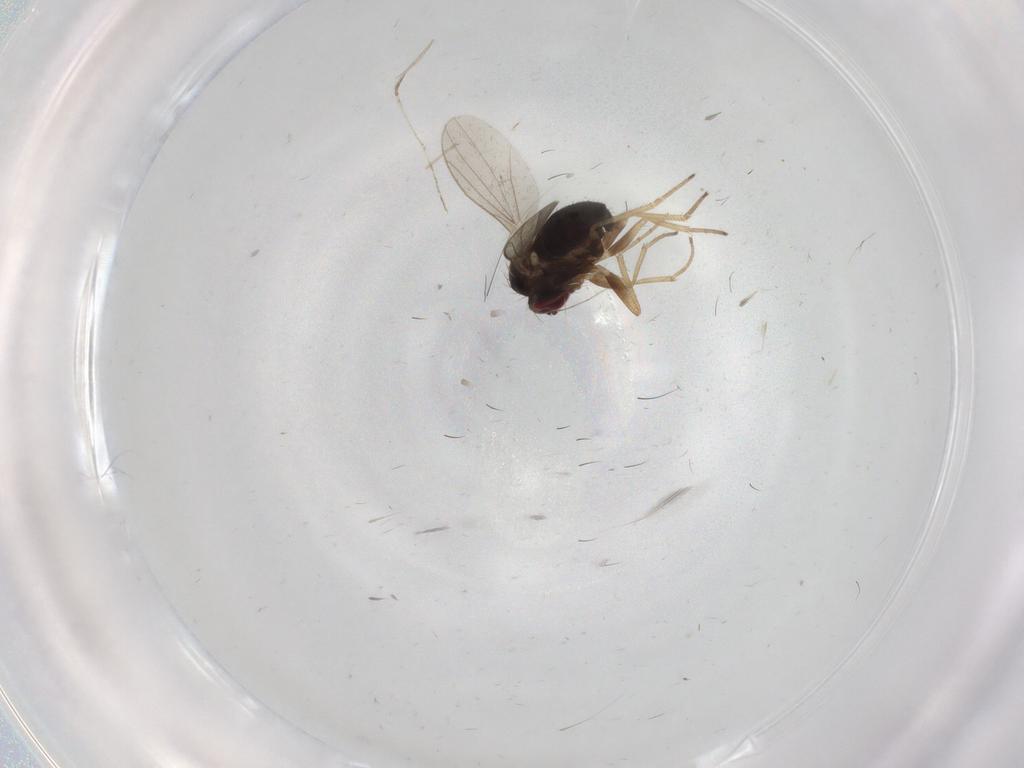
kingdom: Animalia
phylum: Arthropoda
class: Insecta
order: Diptera
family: Dolichopodidae
